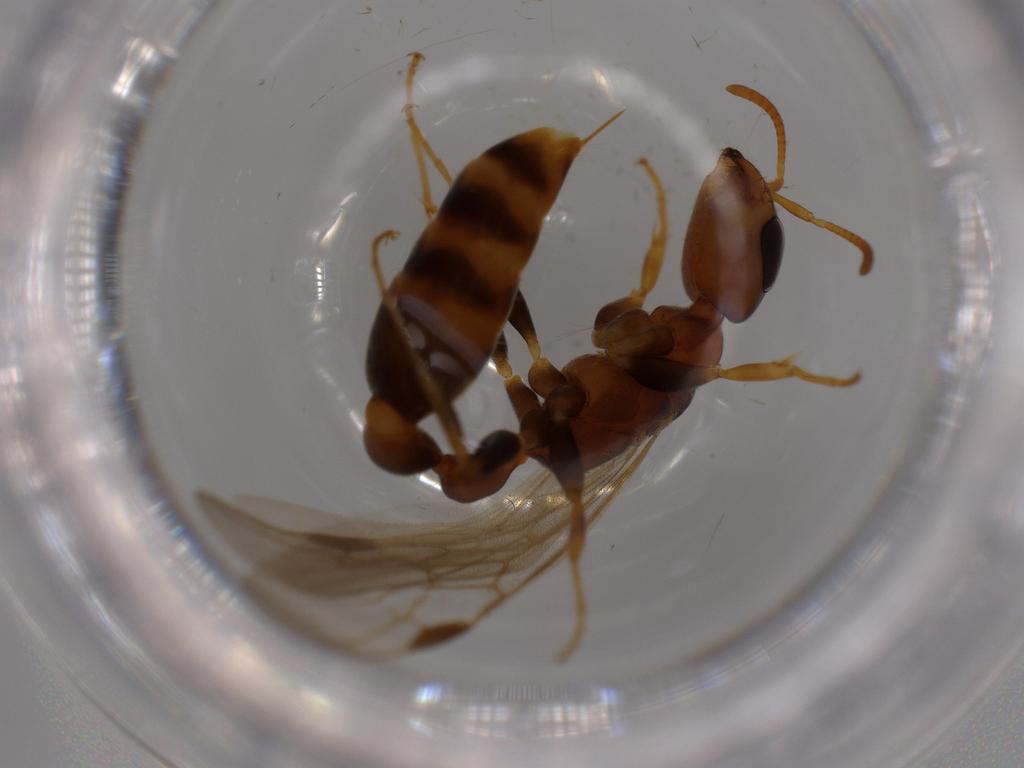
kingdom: Animalia
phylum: Arthropoda
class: Insecta
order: Hymenoptera
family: Formicidae
